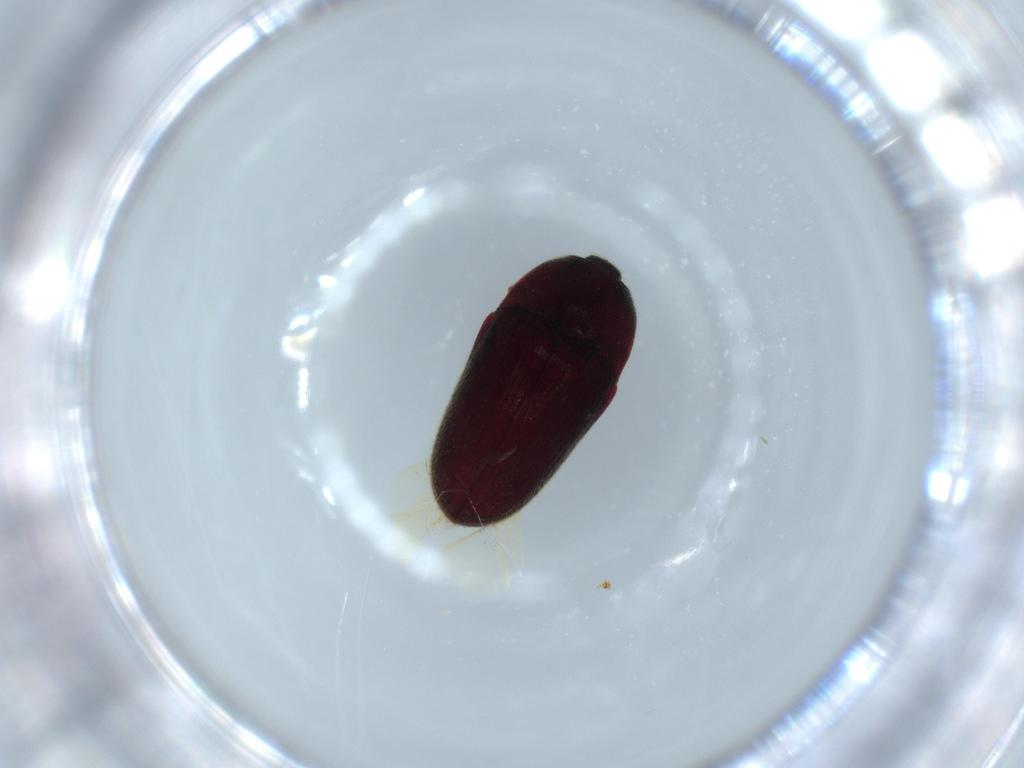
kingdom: Animalia
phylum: Arthropoda
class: Insecta
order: Coleoptera
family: Throscidae
